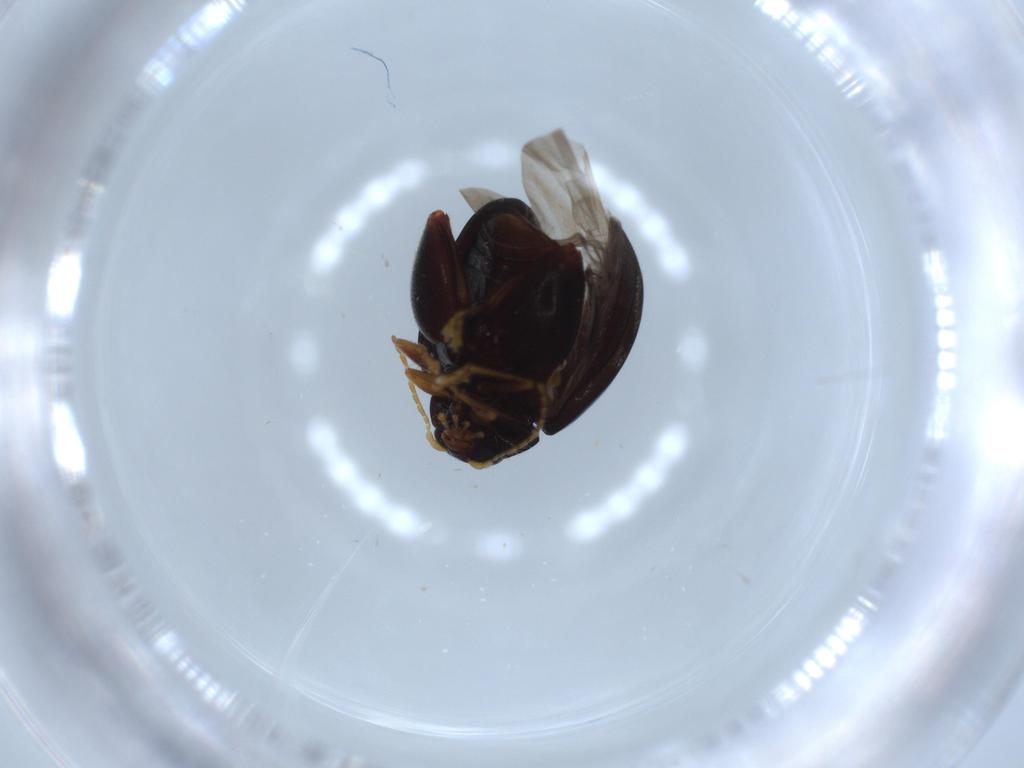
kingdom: Animalia
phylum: Arthropoda
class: Insecta
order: Coleoptera
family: Chrysomelidae
